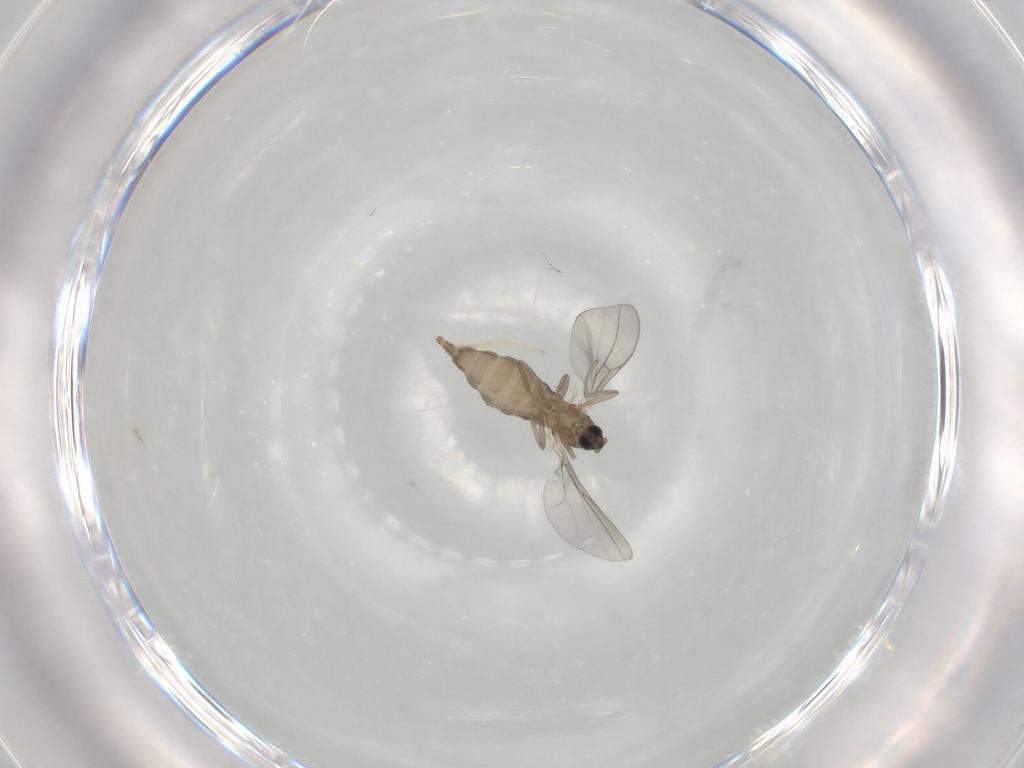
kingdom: Animalia
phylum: Arthropoda
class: Insecta
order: Diptera
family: Cecidomyiidae
